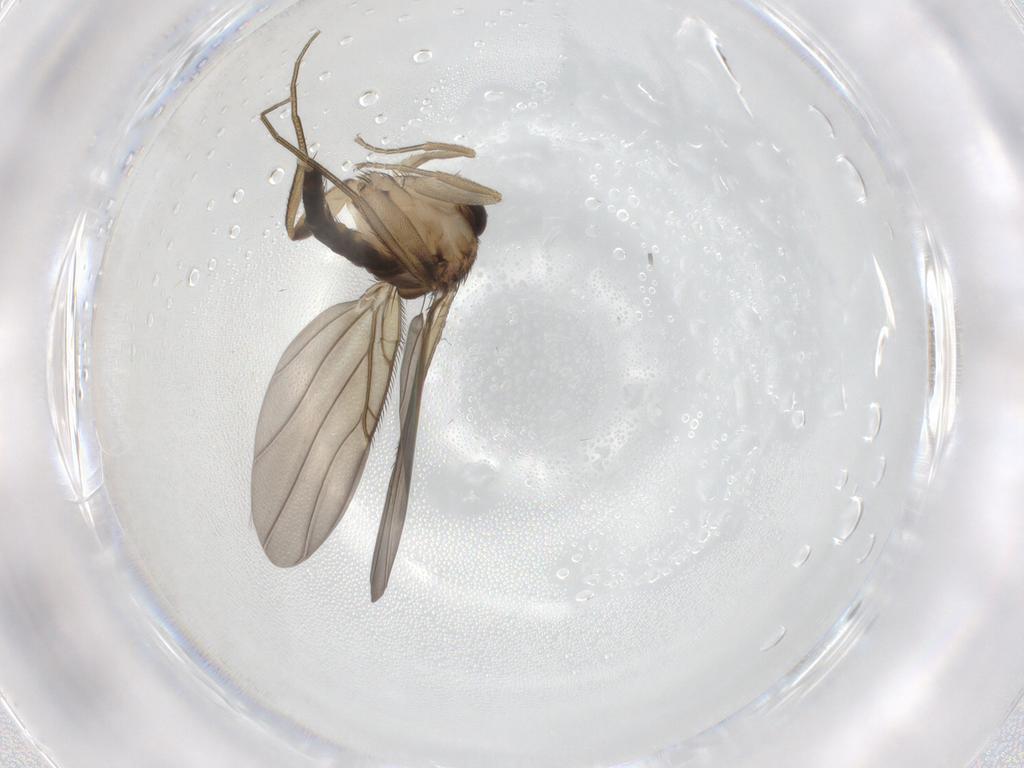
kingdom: Animalia
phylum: Arthropoda
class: Insecta
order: Diptera
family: Phoridae
